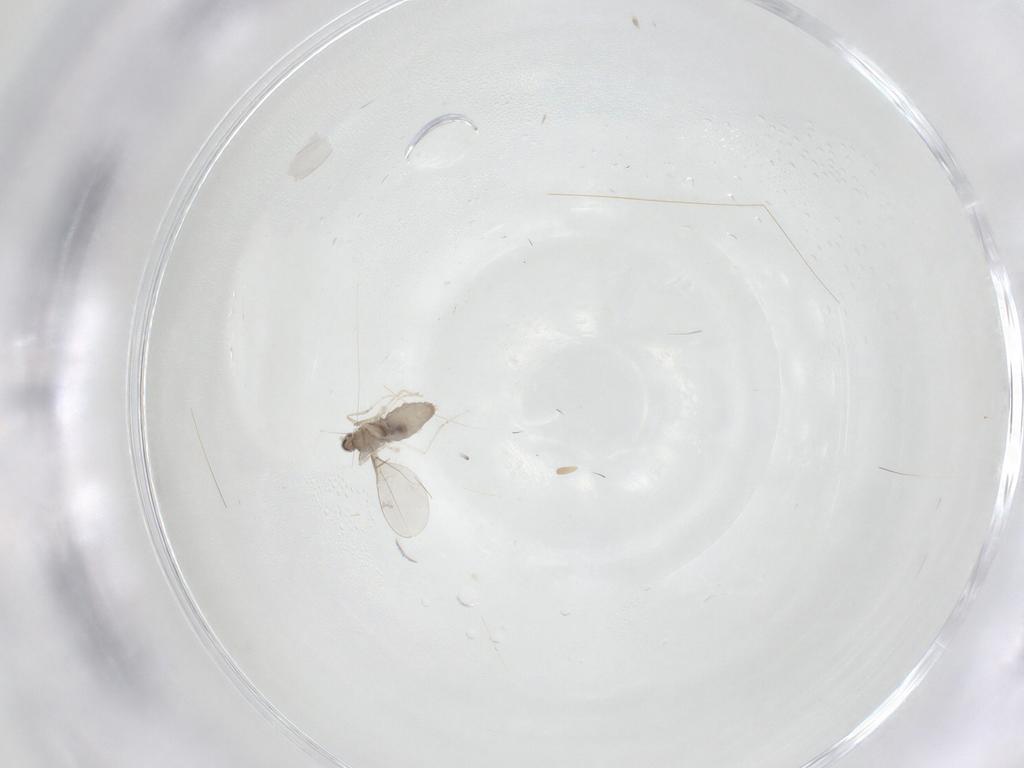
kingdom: Animalia
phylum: Arthropoda
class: Insecta
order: Diptera
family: Cecidomyiidae
